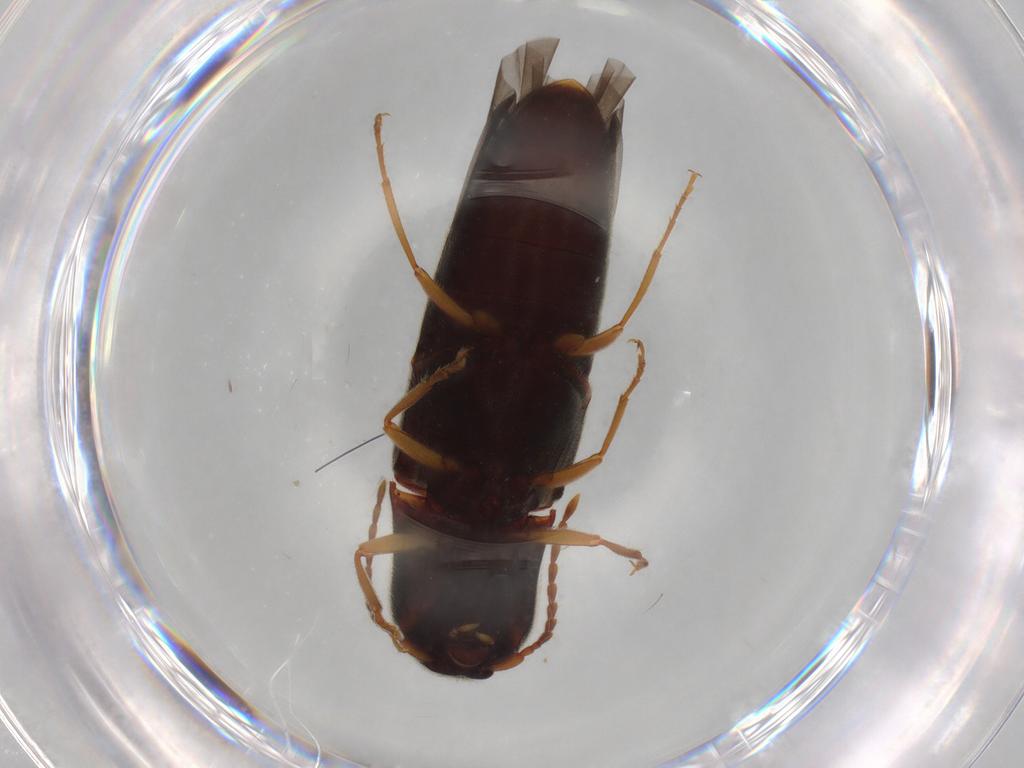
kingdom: Animalia
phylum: Arthropoda
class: Insecta
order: Coleoptera
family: Elateridae
